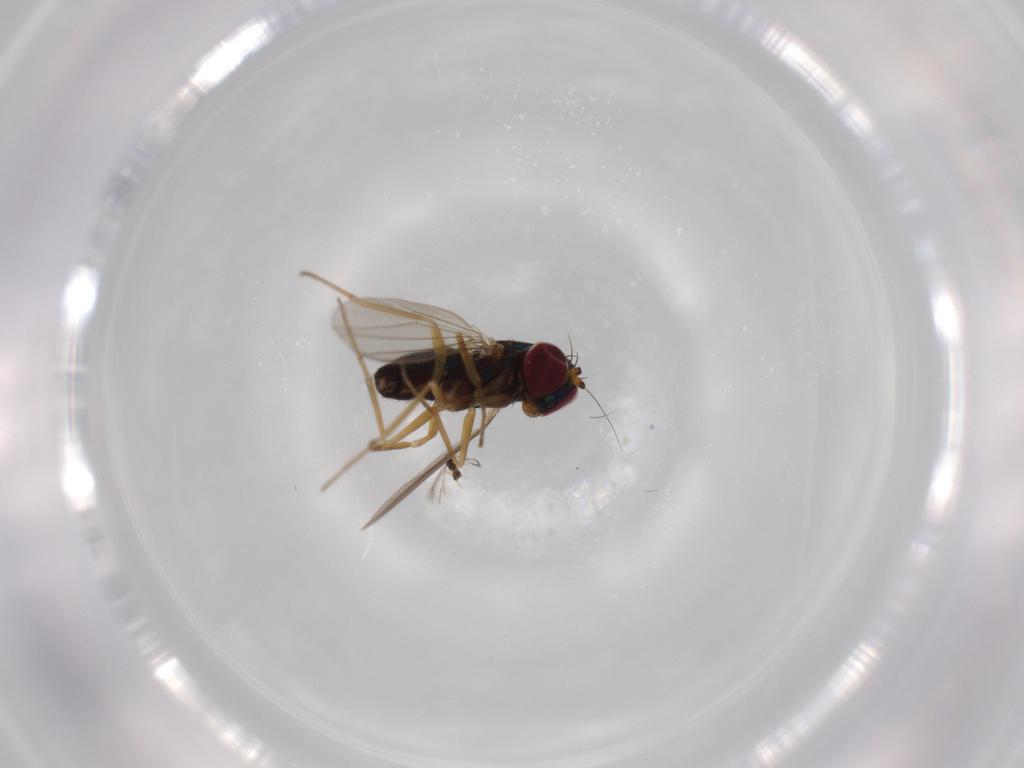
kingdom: Animalia
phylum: Arthropoda
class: Insecta
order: Diptera
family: Dolichopodidae
